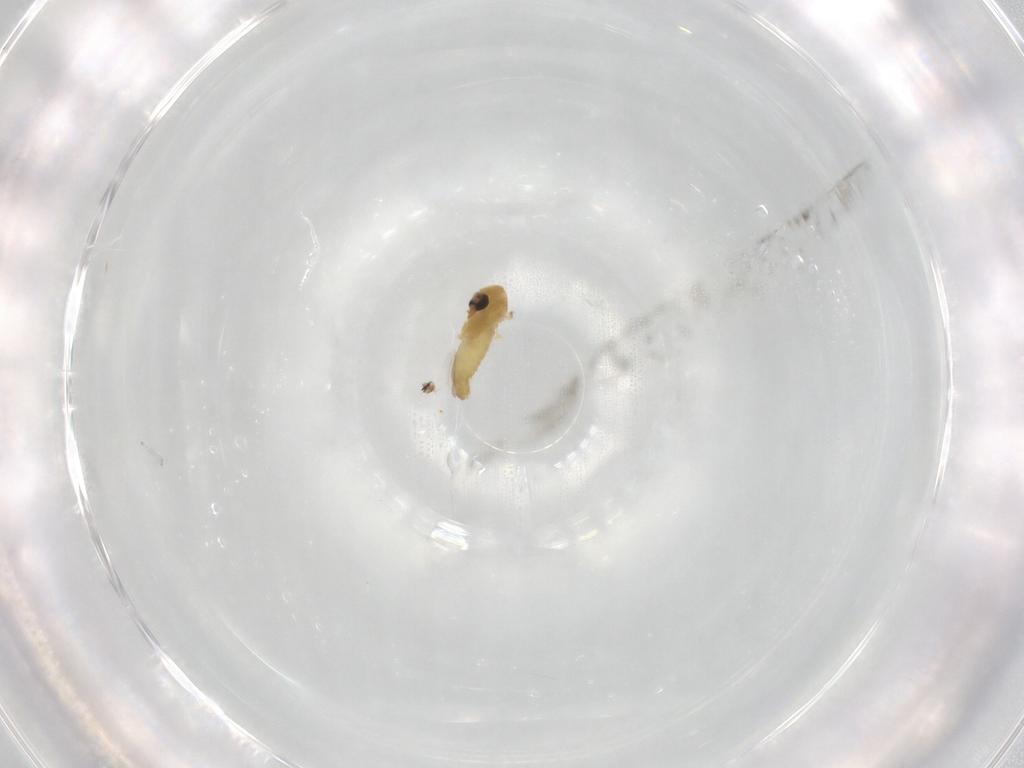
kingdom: Animalia
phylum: Arthropoda
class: Insecta
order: Diptera
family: Chironomidae
